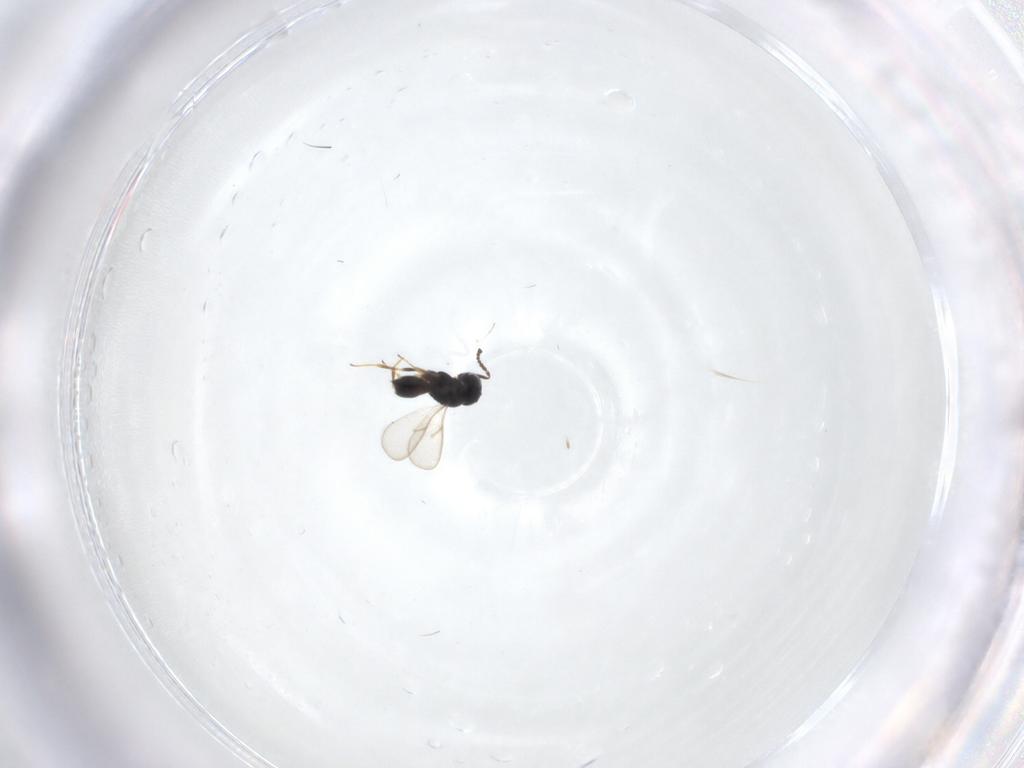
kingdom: Animalia
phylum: Arthropoda
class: Insecta
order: Hymenoptera
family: Scelionidae
